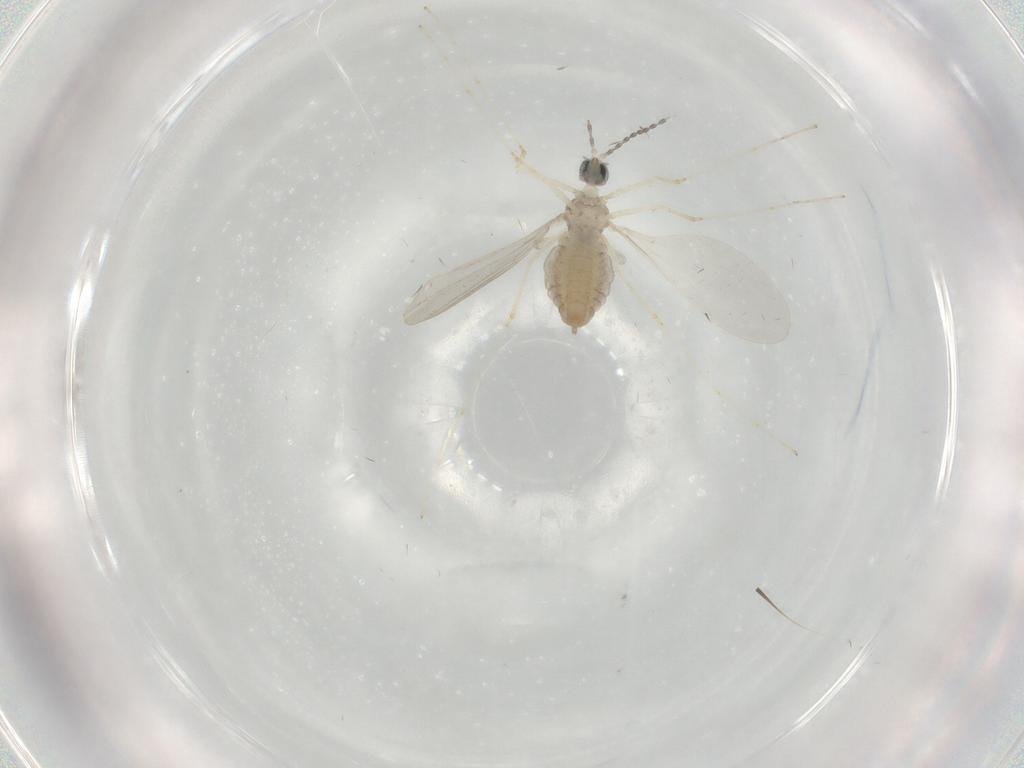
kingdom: Animalia
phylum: Arthropoda
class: Insecta
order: Diptera
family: Cecidomyiidae
